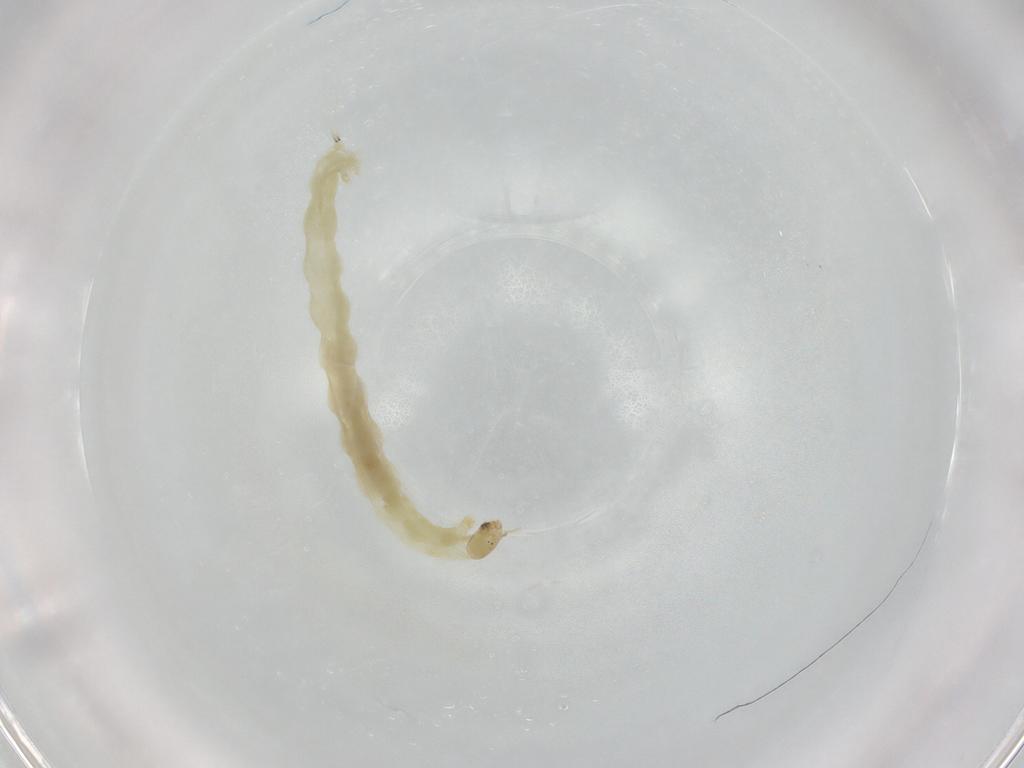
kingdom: Animalia
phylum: Arthropoda
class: Insecta
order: Diptera
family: Chironomidae
